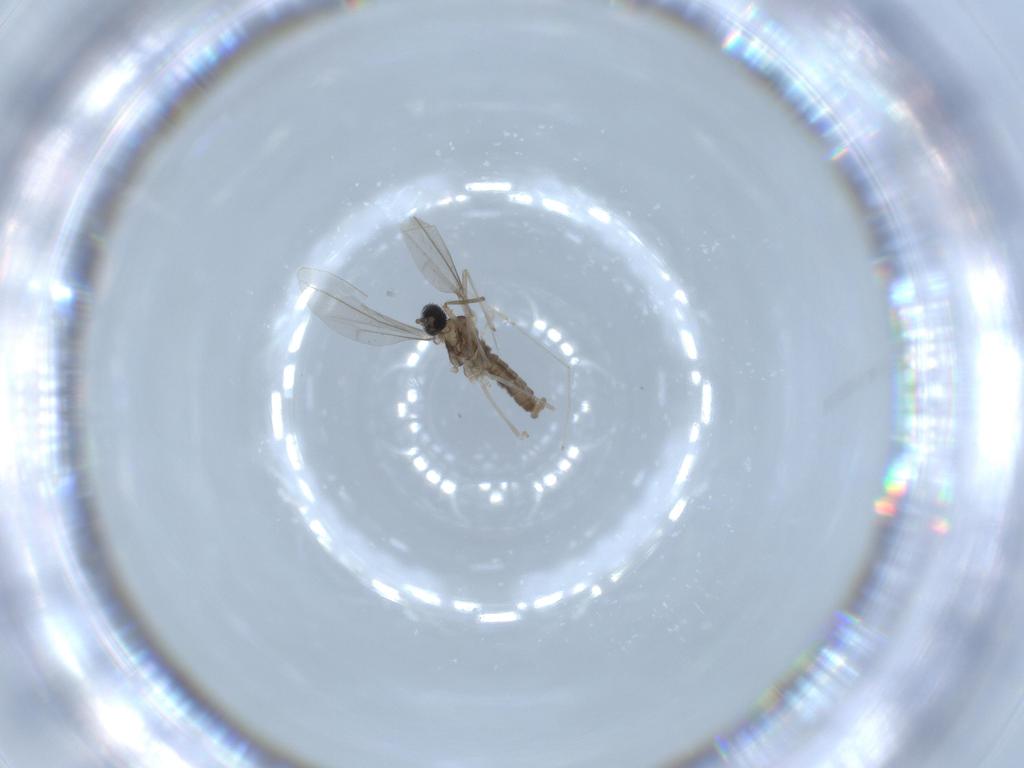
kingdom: Animalia
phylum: Arthropoda
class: Insecta
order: Diptera
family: Cecidomyiidae
